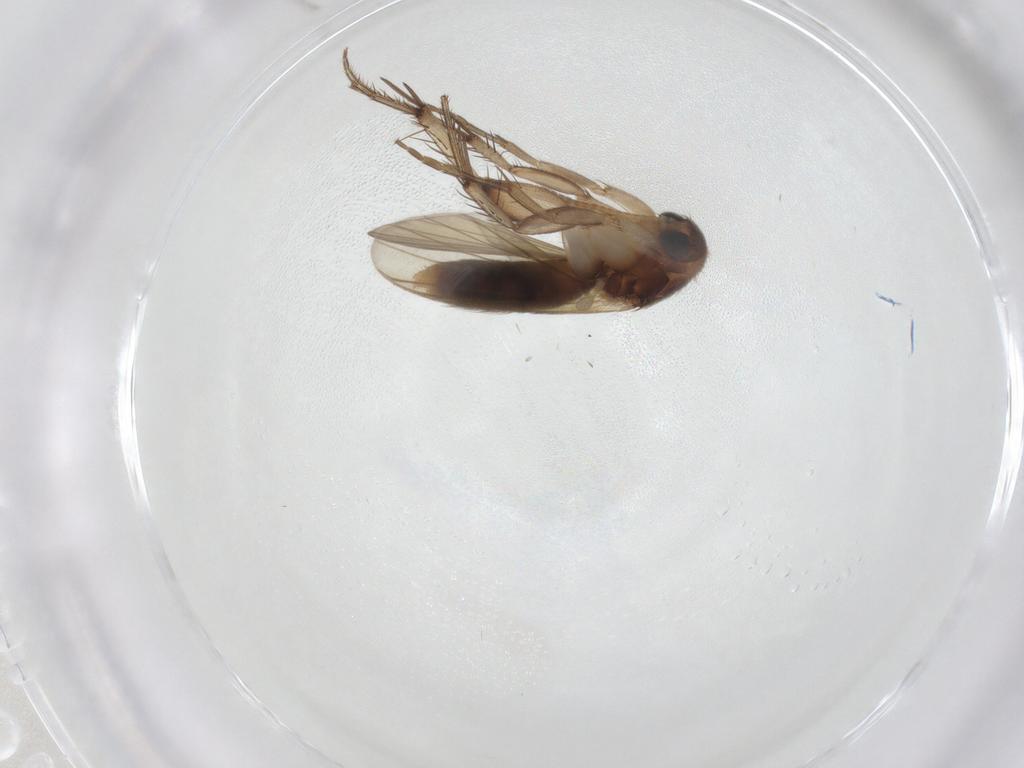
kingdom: Animalia
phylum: Arthropoda
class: Insecta
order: Diptera
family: Mycetophilidae
